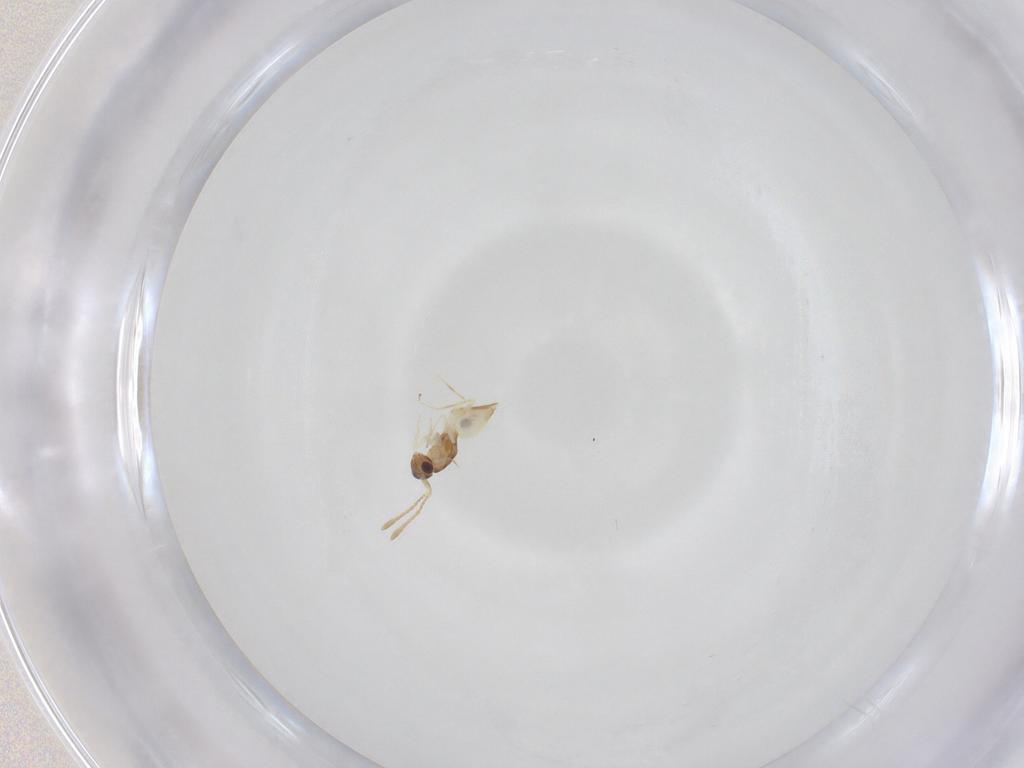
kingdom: Animalia
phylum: Arthropoda
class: Insecta
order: Hymenoptera
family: Mymaridae
